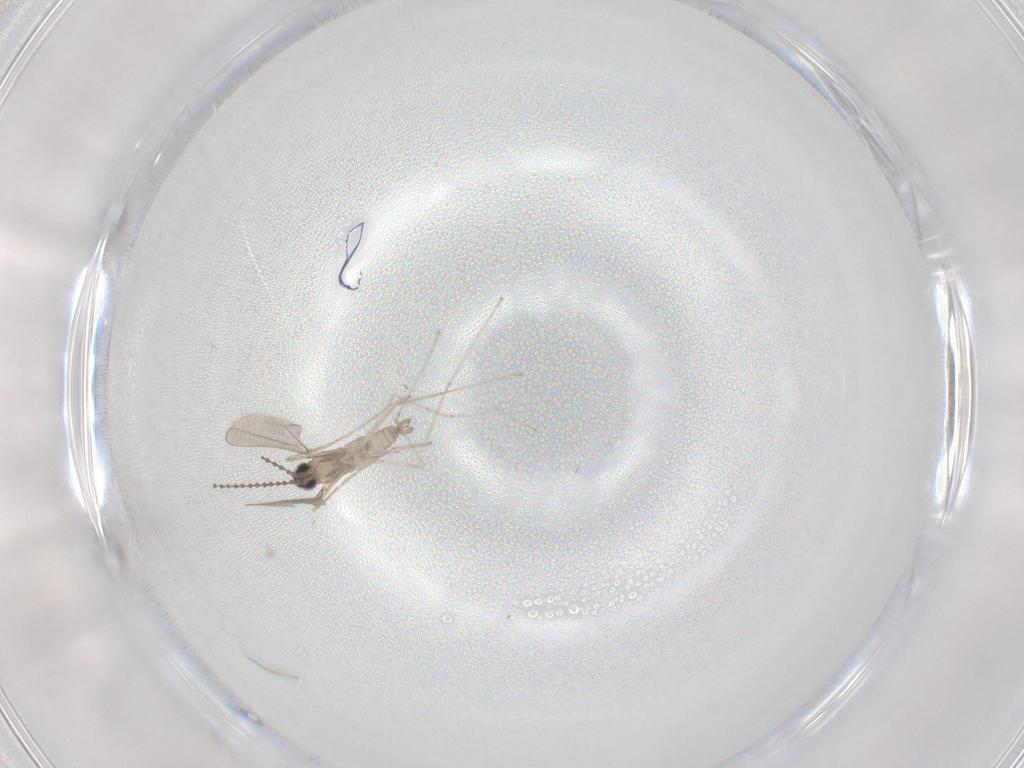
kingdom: Animalia
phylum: Arthropoda
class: Insecta
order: Diptera
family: Cecidomyiidae
